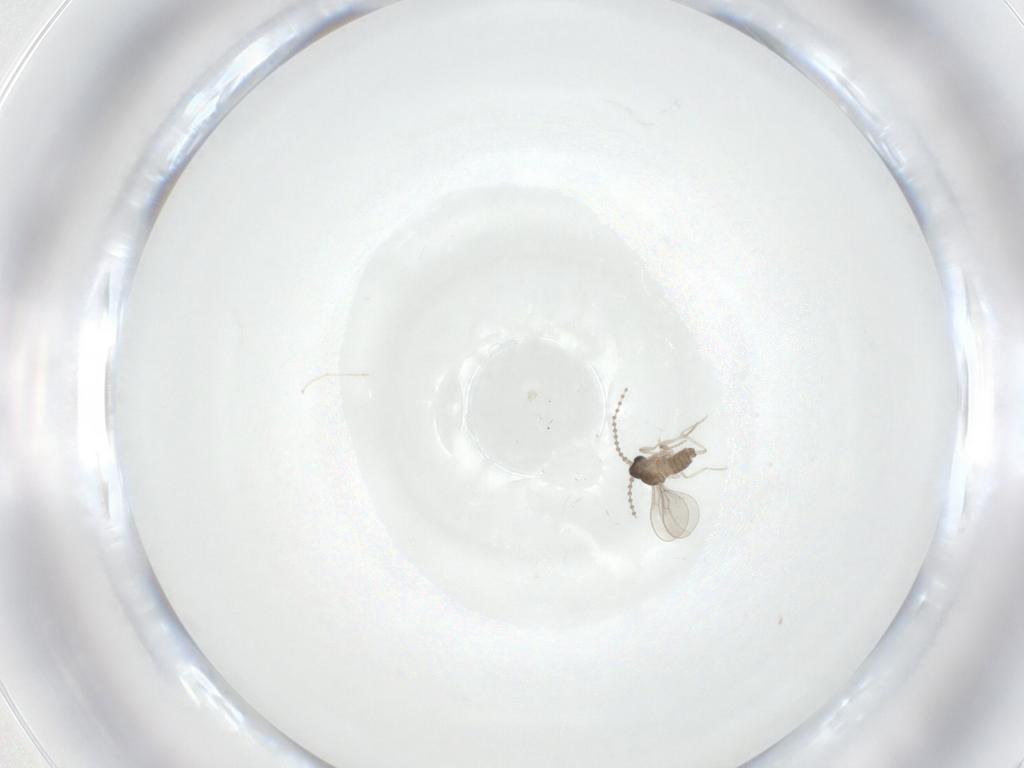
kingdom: Animalia
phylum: Arthropoda
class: Insecta
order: Diptera
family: Cecidomyiidae
